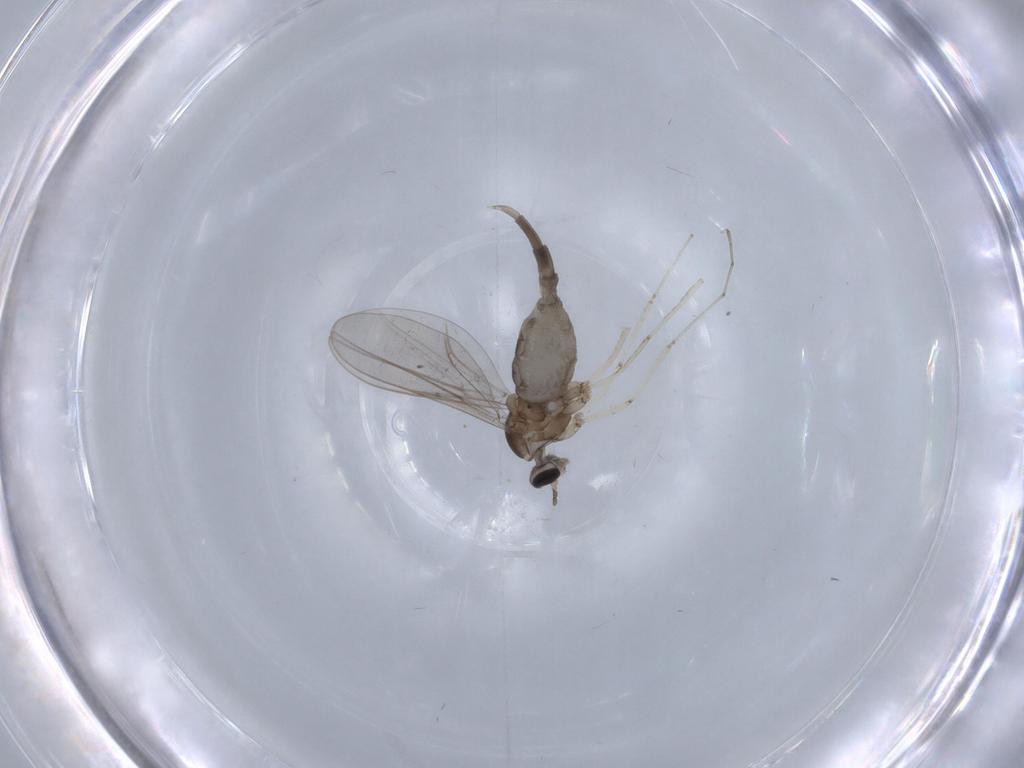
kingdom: Animalia
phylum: Arthropoda
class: Insecta
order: Diptera
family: Cecidomyiidae
